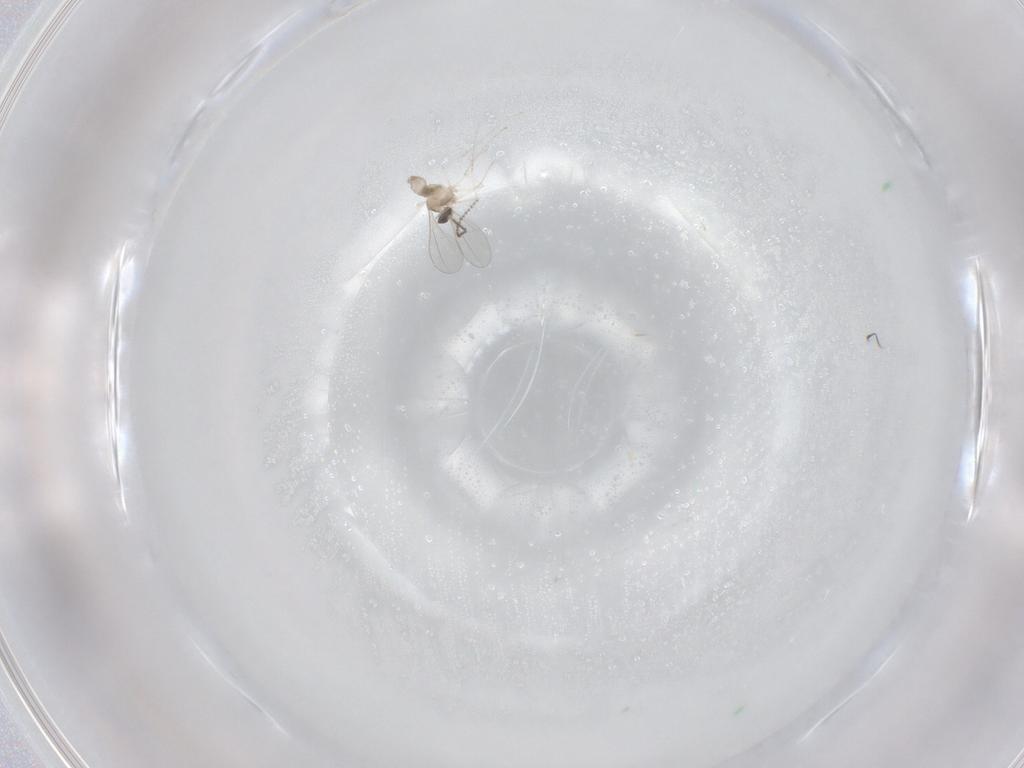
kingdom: Animalia
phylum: Arthropoda
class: Insecta
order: Diptera
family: Cecidomyiidae
